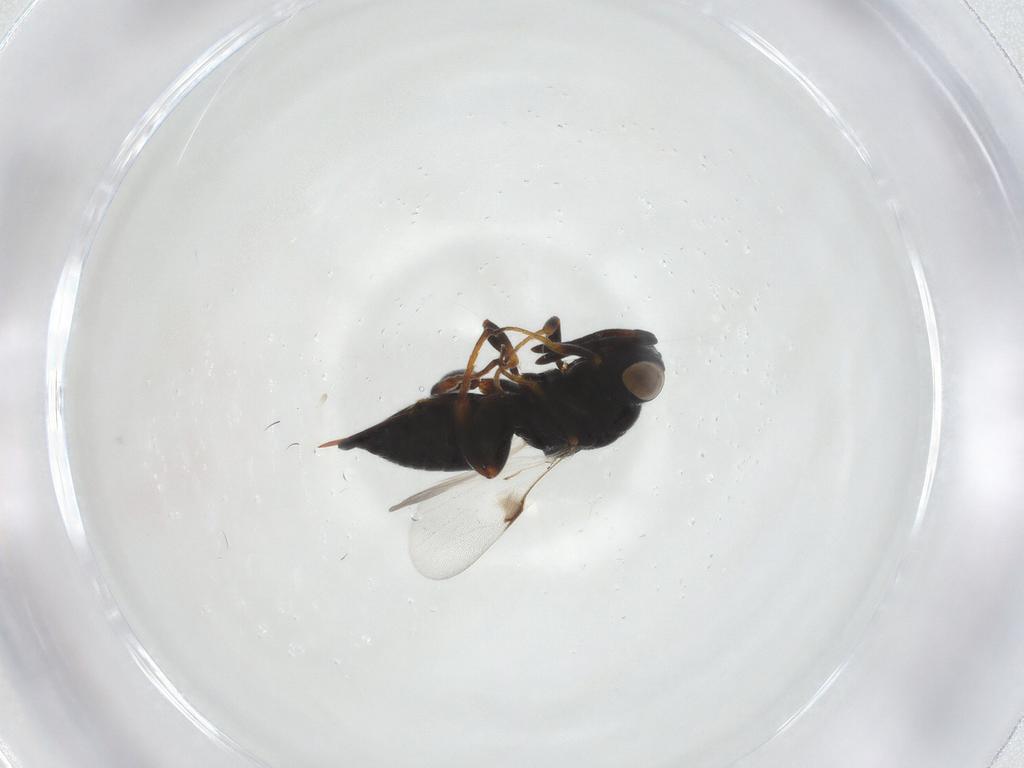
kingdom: Animalia
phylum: Arthropoda
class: Insecta
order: Hymenoptera
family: Chalcididae
